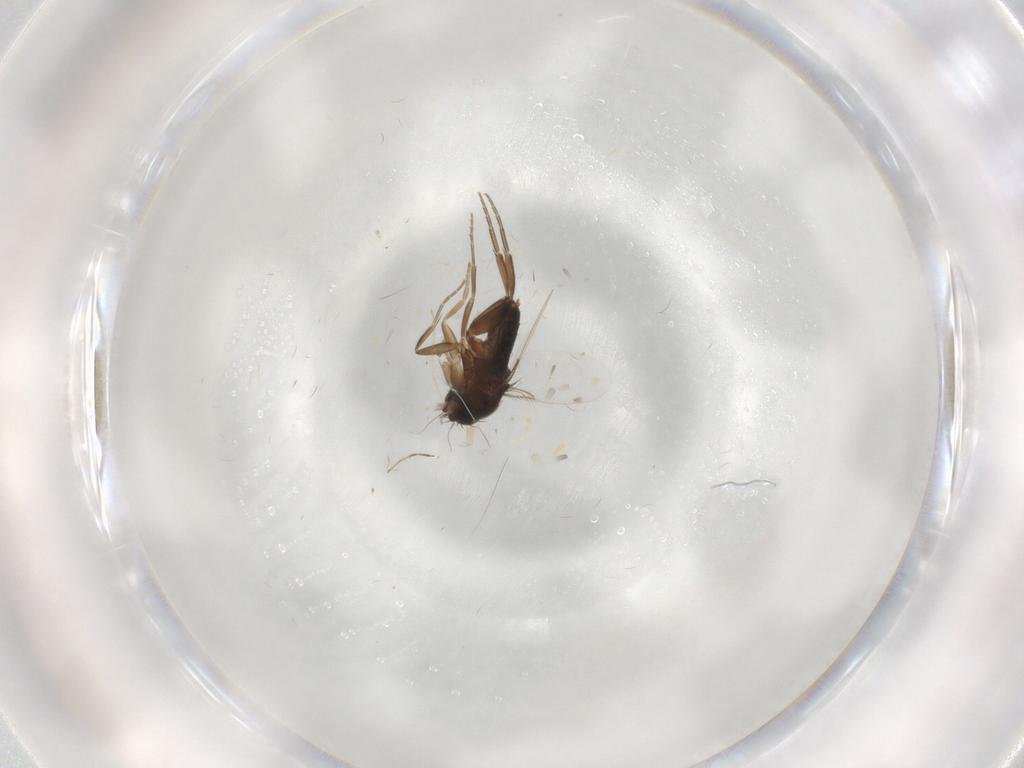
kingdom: Animalia
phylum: Arthropoda
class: Insecta
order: Diptera
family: Phoridae
